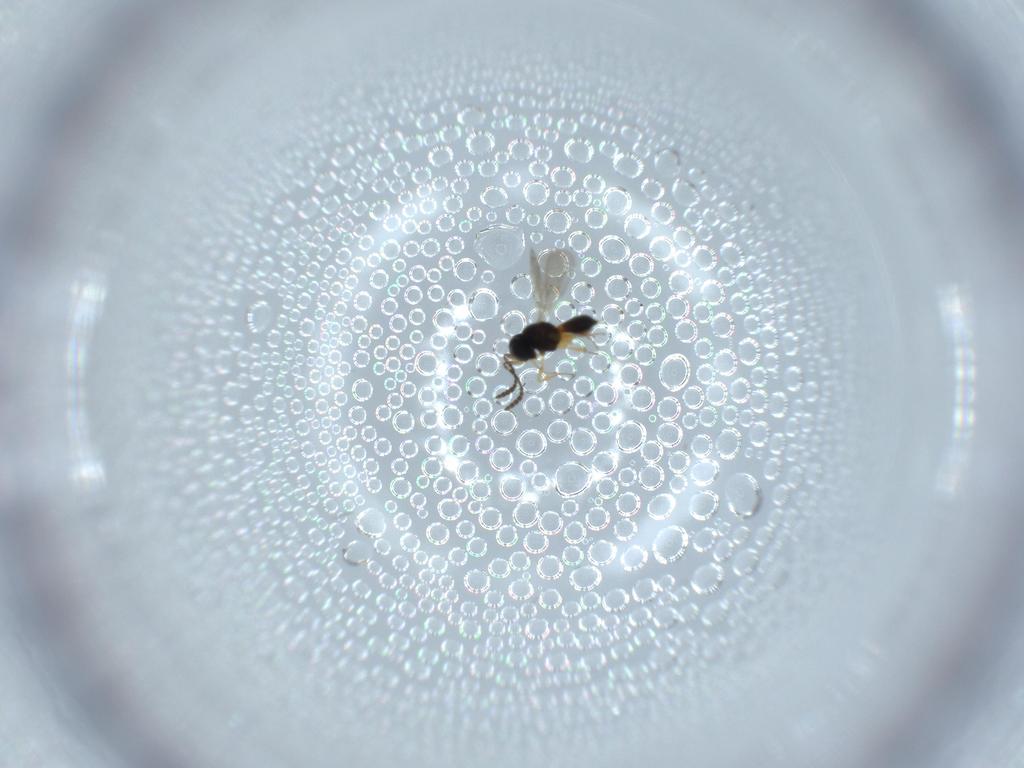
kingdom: Animalia
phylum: Arthropoda
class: Insecta
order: Hymenoptera
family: Scelionidae
